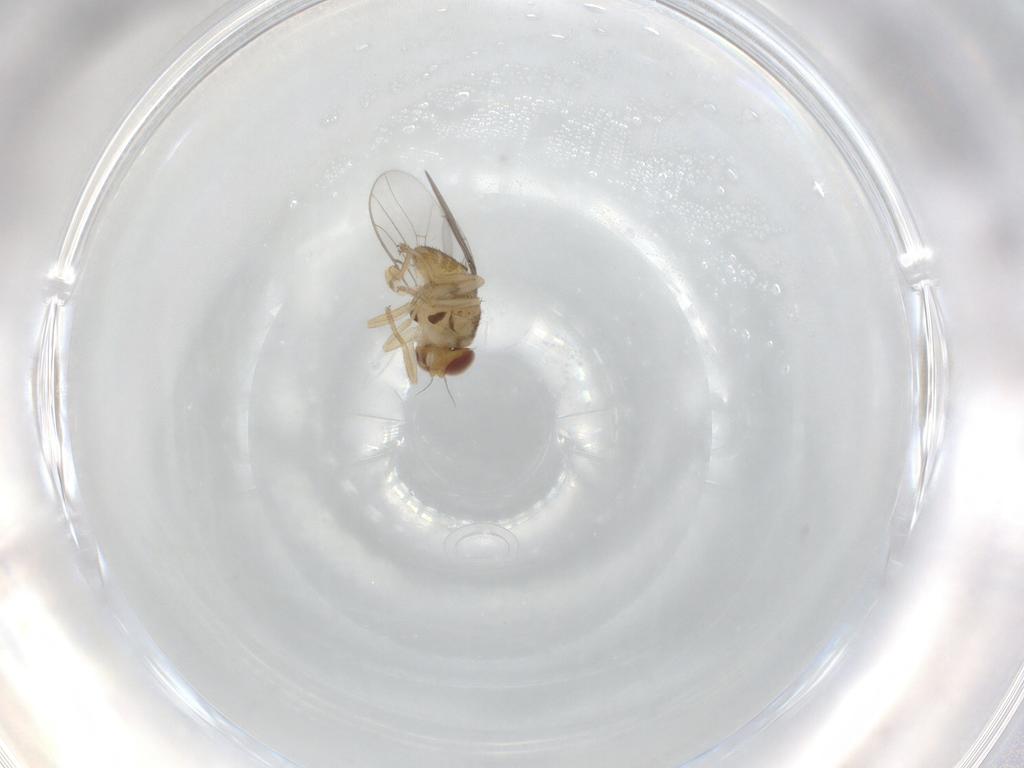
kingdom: Animalia
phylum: Arthropoda
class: Insecta
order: Diptera
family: Chloropidae
